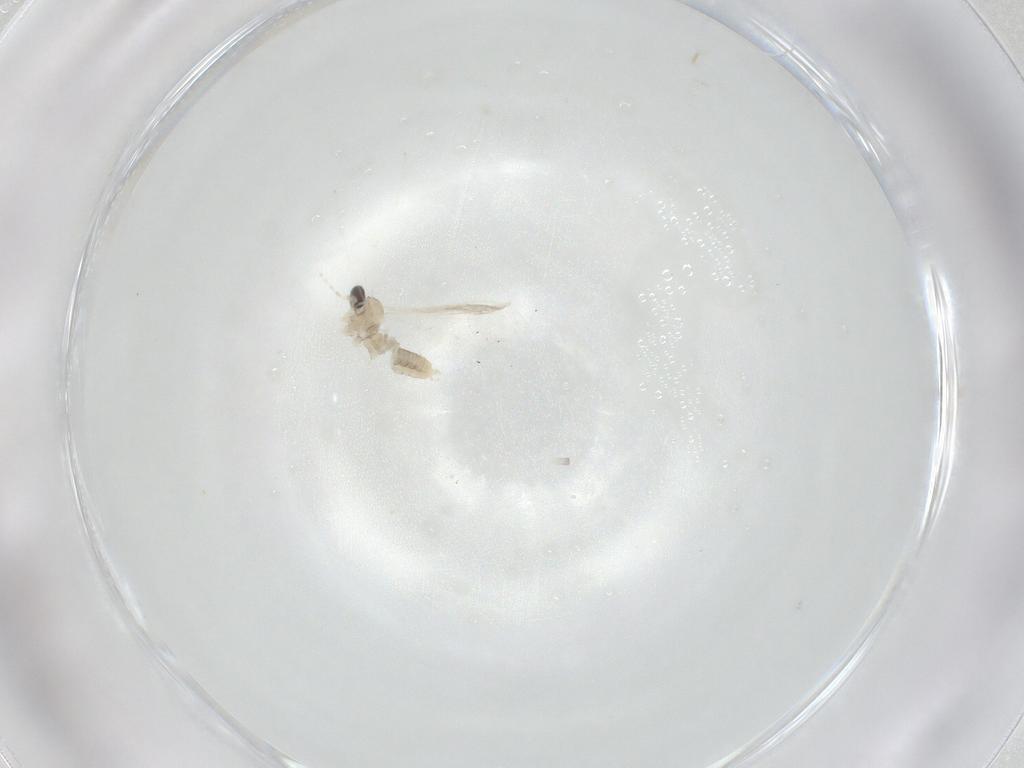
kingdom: Animalia
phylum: Arthropoda
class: Insecta
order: Diptera
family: Cecidomyiidae
